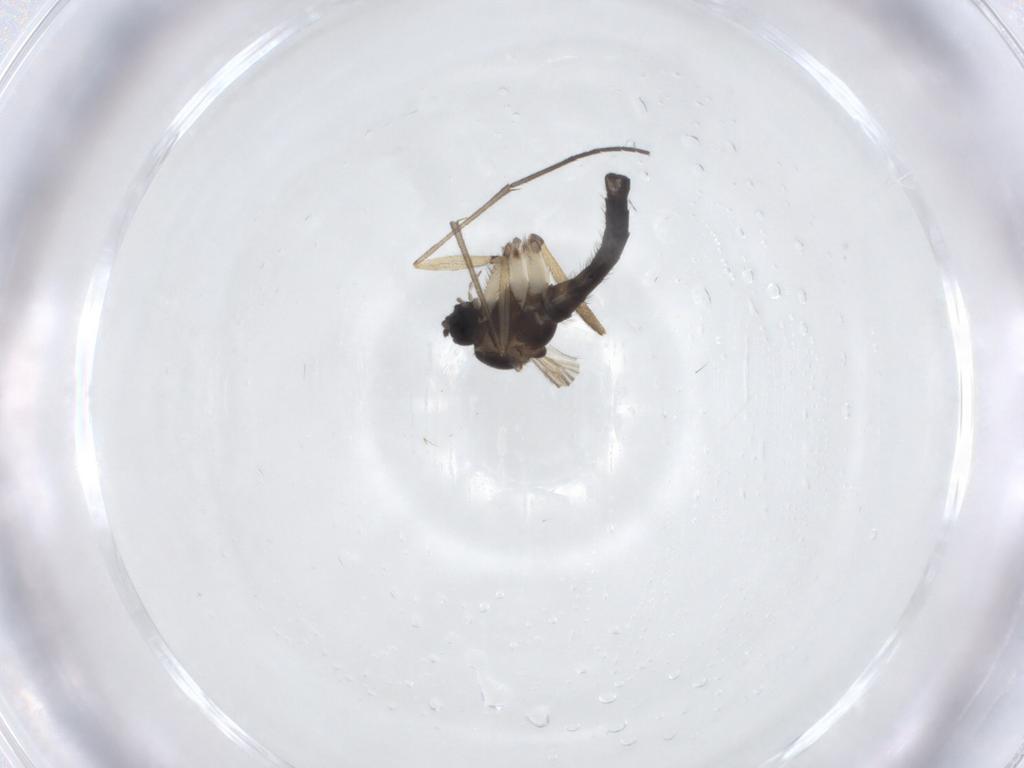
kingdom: Animalia
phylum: Arthropoda
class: Insecta
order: Diptera
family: Sciaridae
